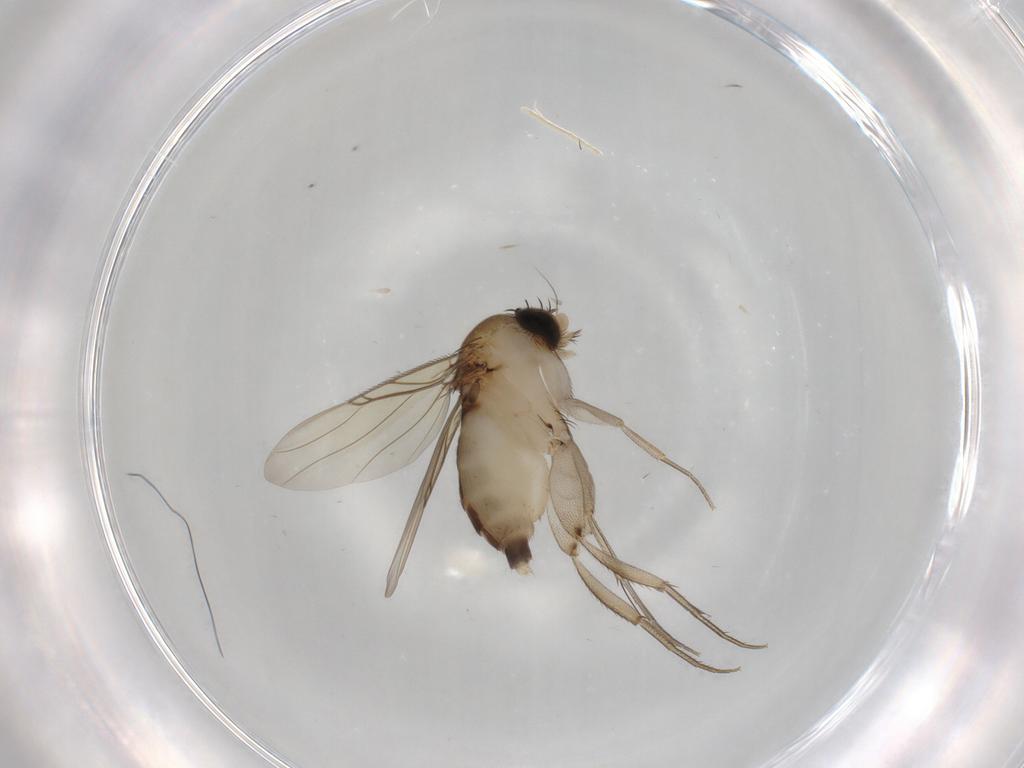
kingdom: Animalia
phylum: Arthropoda
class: Insecta
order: Diptera
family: Phoridae
